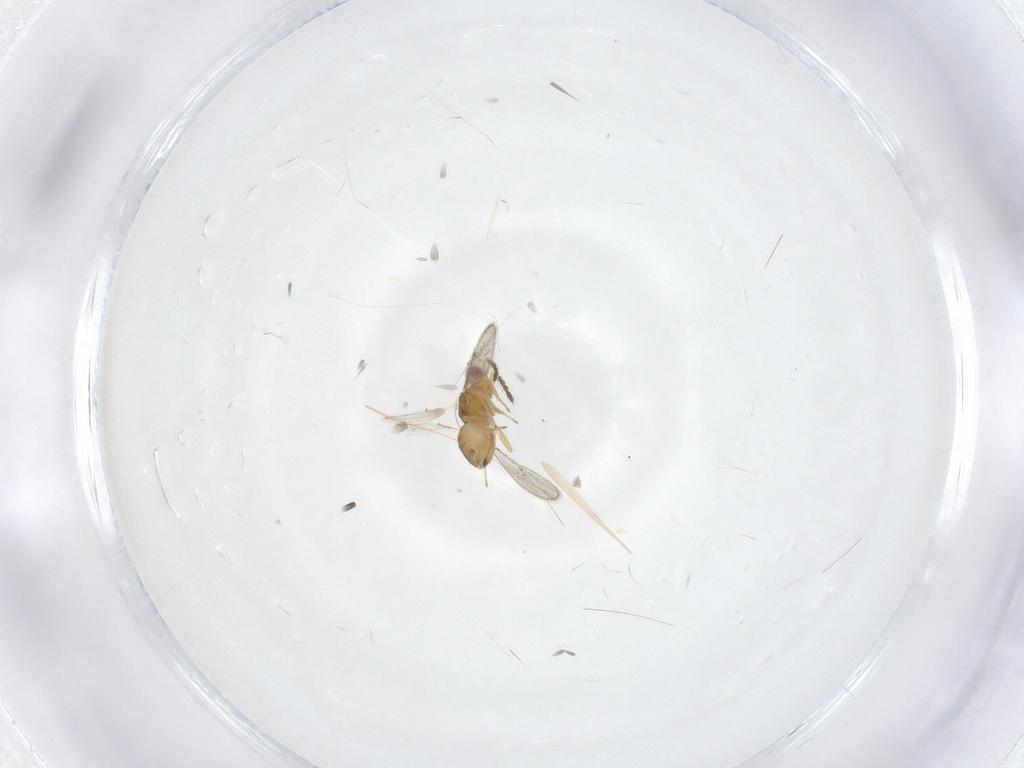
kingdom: Animalia
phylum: Arthropoda
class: Insecta
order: Hymenoptera
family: Eulophidae
